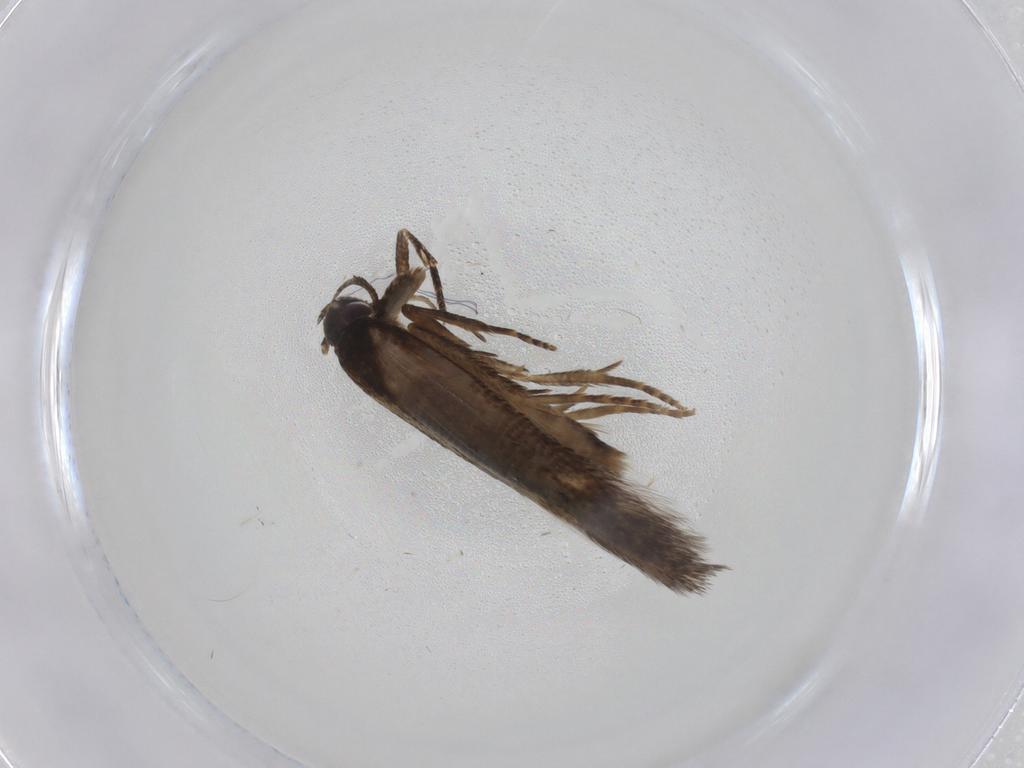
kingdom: Animalia
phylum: Arthropoda
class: Insecta
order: Lepidoptera
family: Cosmopterigidae
